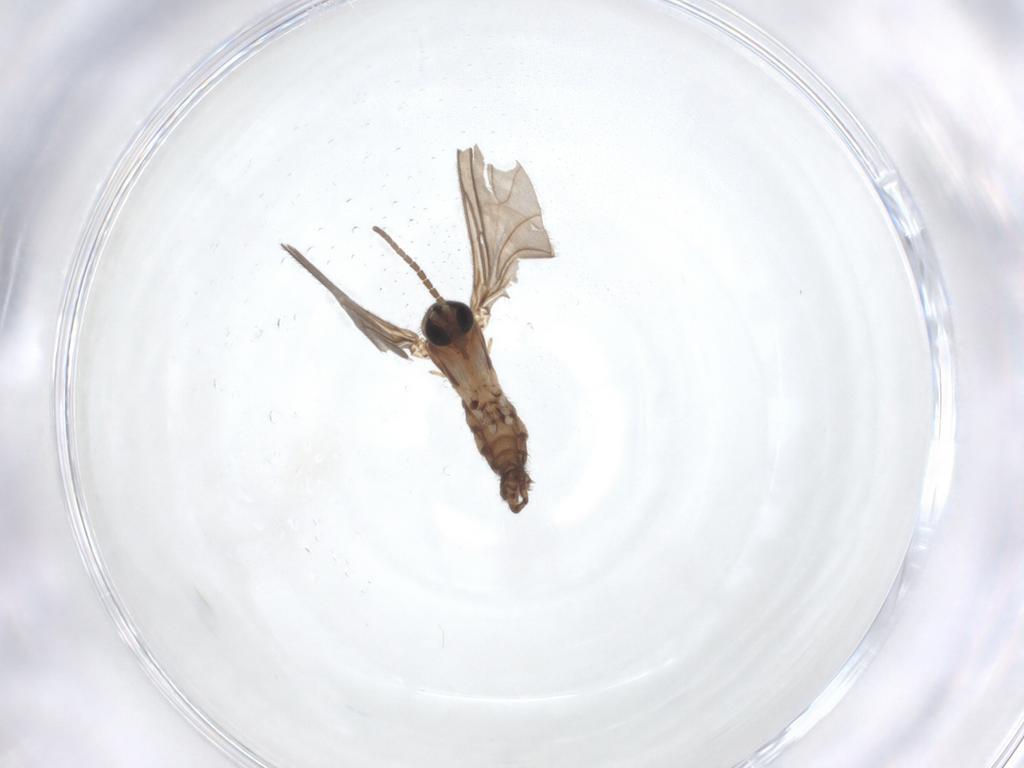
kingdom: Animalia
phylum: Arthropoda
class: Insecta
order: Diptera
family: Sciaridae
